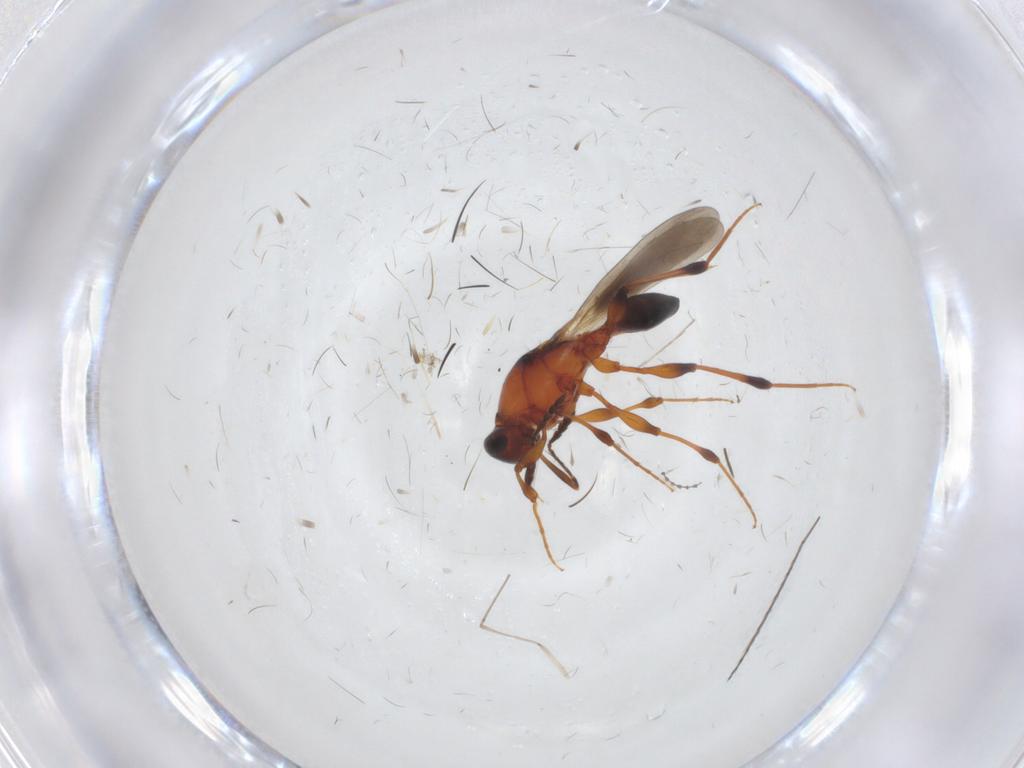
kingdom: Animalia
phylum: Arthropoda
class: Insecta
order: Hymenoptera
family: Platygastridae
